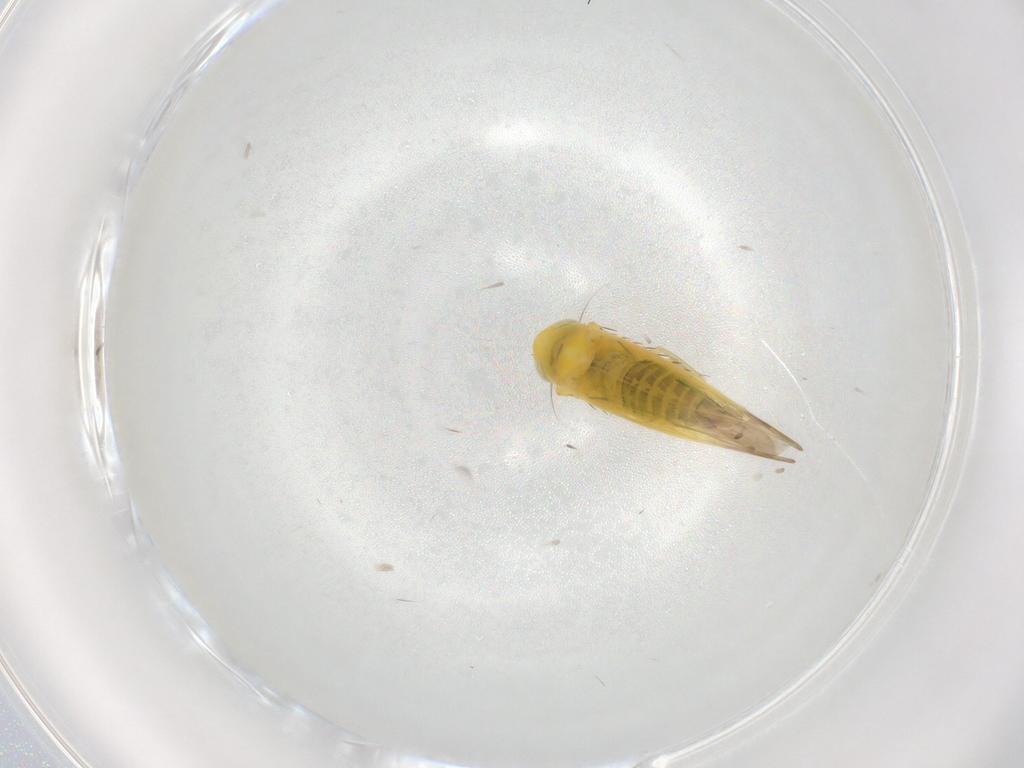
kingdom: Animalia
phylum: Arthropoda
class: Insecta
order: Hemiptera
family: Cicadellidae
